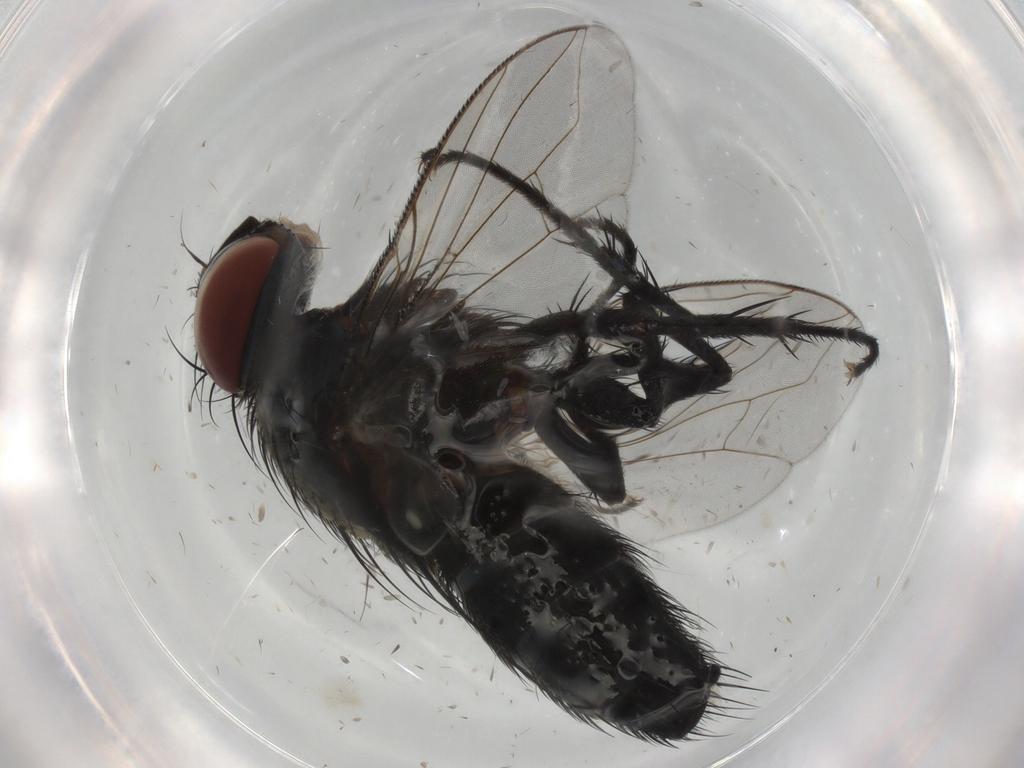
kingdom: Animalia
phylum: Arthropoda
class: Insecta
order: Diptera
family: Tachinidae
